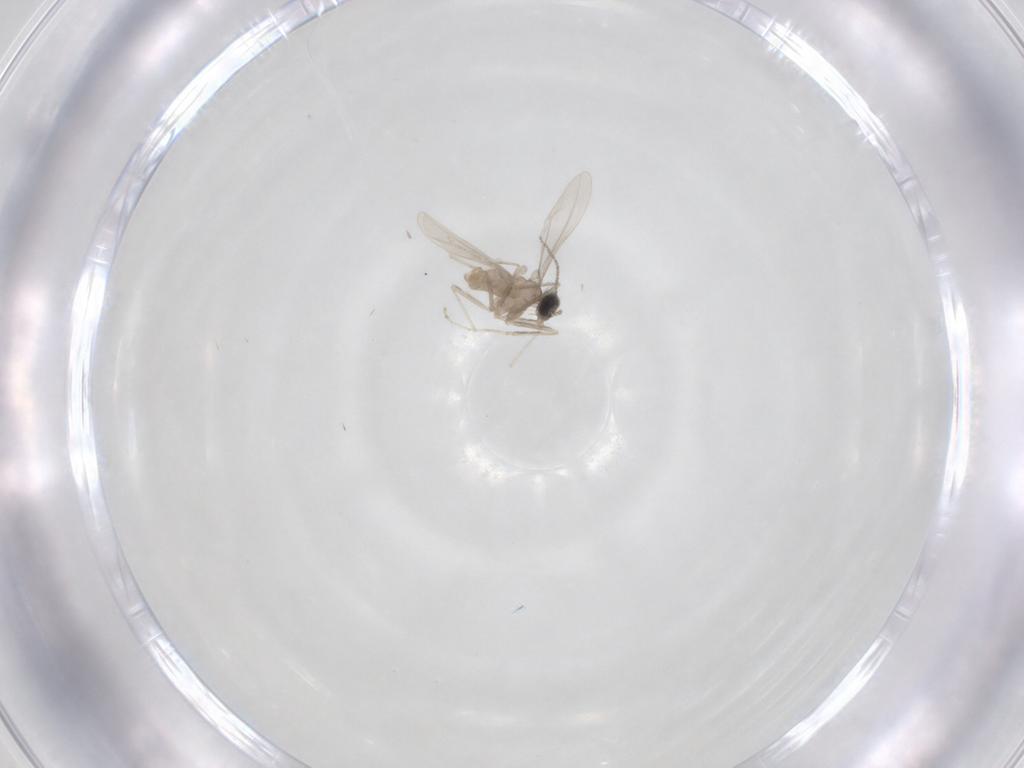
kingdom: Animalia
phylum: Arthropoda
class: Insecta
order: Diptera
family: Cecidomyiidae
